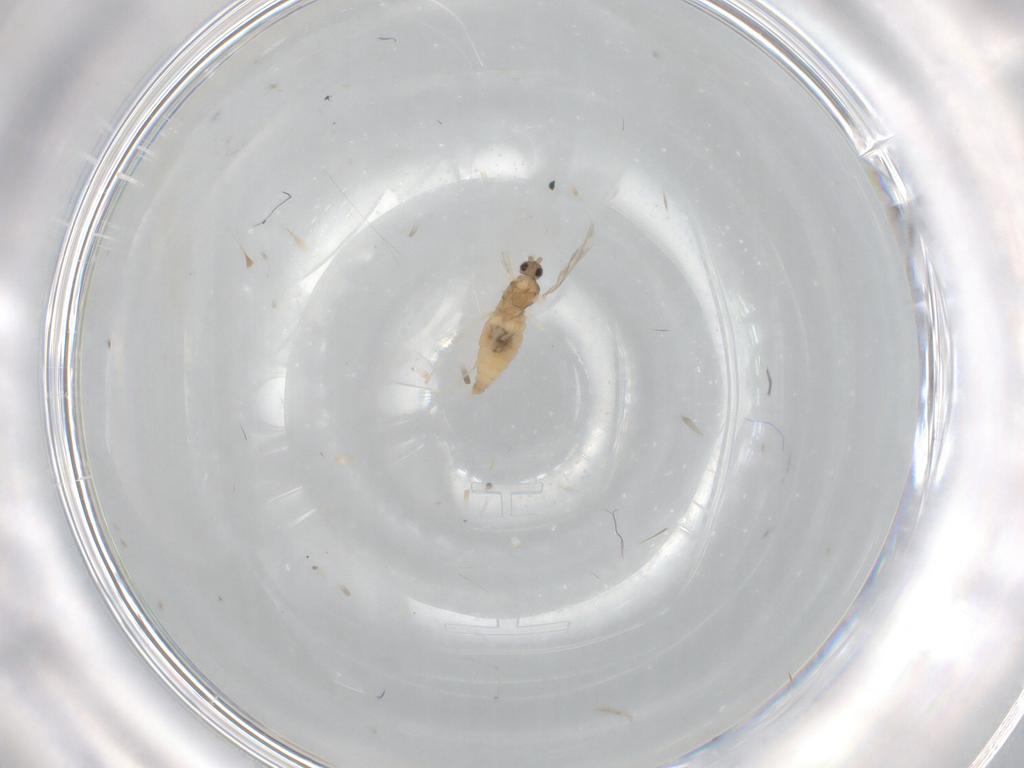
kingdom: Animalia
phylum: Arthropoda
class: Insecta
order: Diptera
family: Cecidomyiidae
